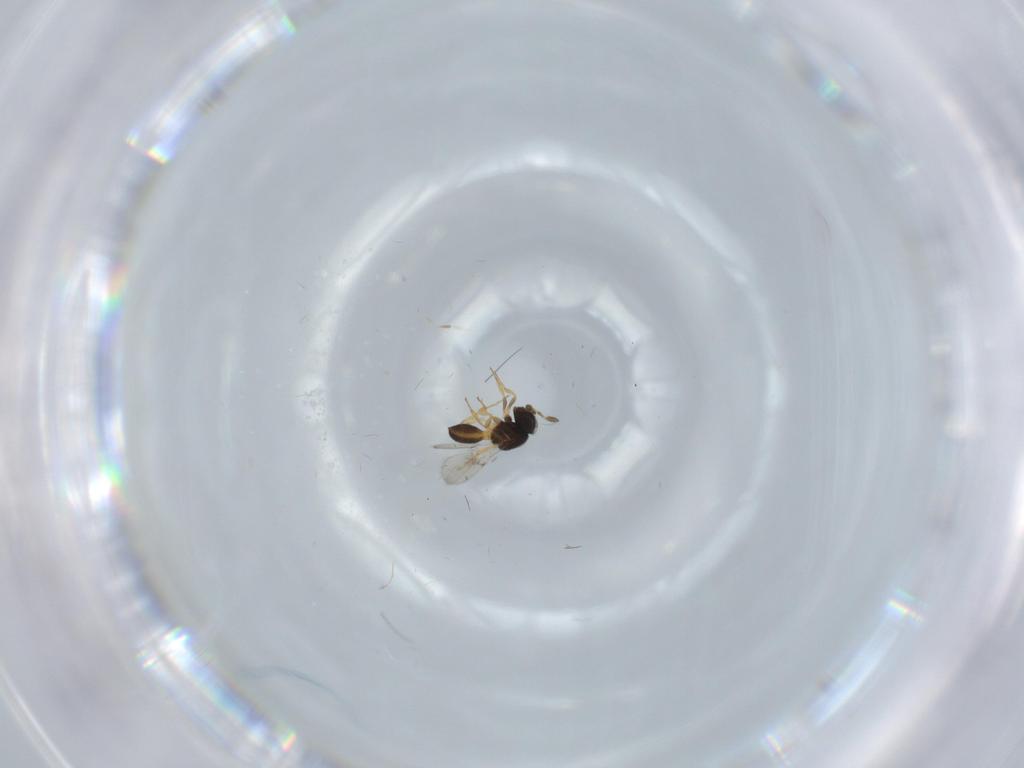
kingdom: Animalia
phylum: Arthropoda
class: Insecta
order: Hymenoptera
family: Scelionidae
